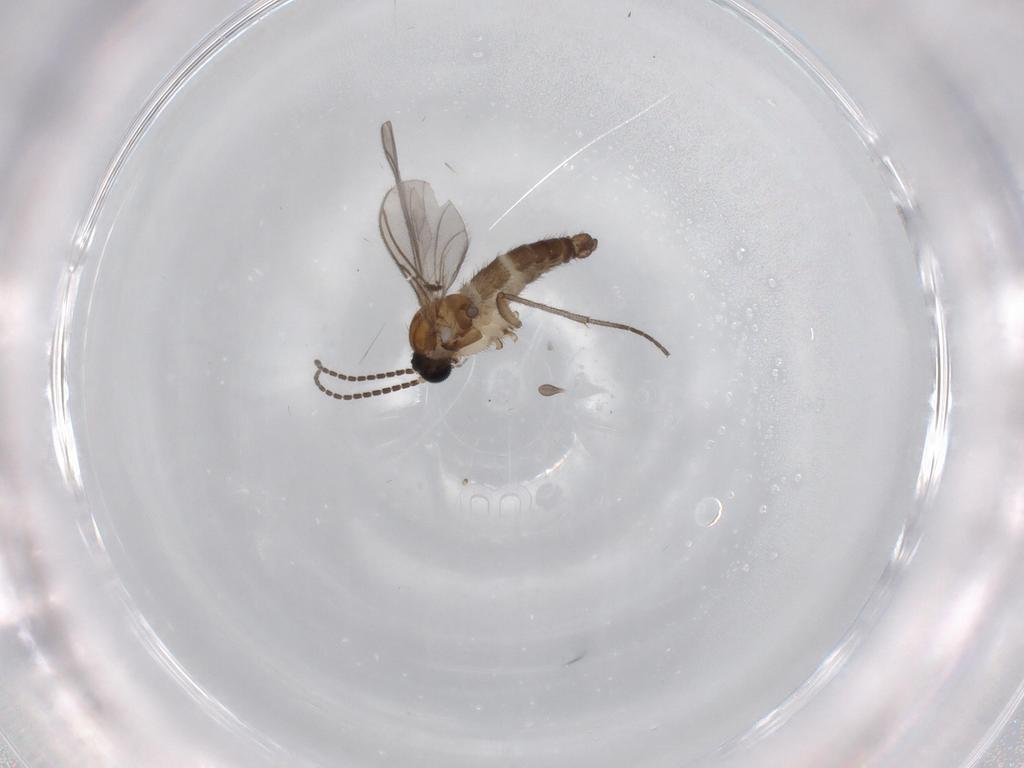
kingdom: Animalia
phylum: Arthropoda
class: Insecta
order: Diptera
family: Sciaridae
